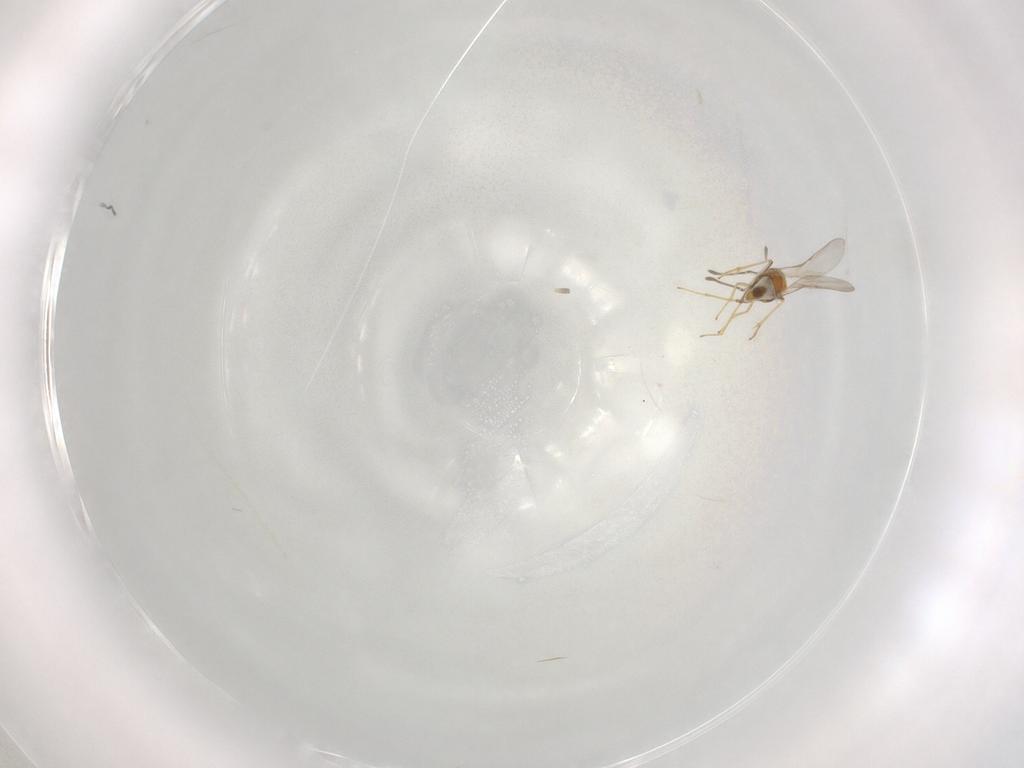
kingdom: Animalia
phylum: Arthropoda
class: Insecta
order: Hymenoptera
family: Encyrtidae
